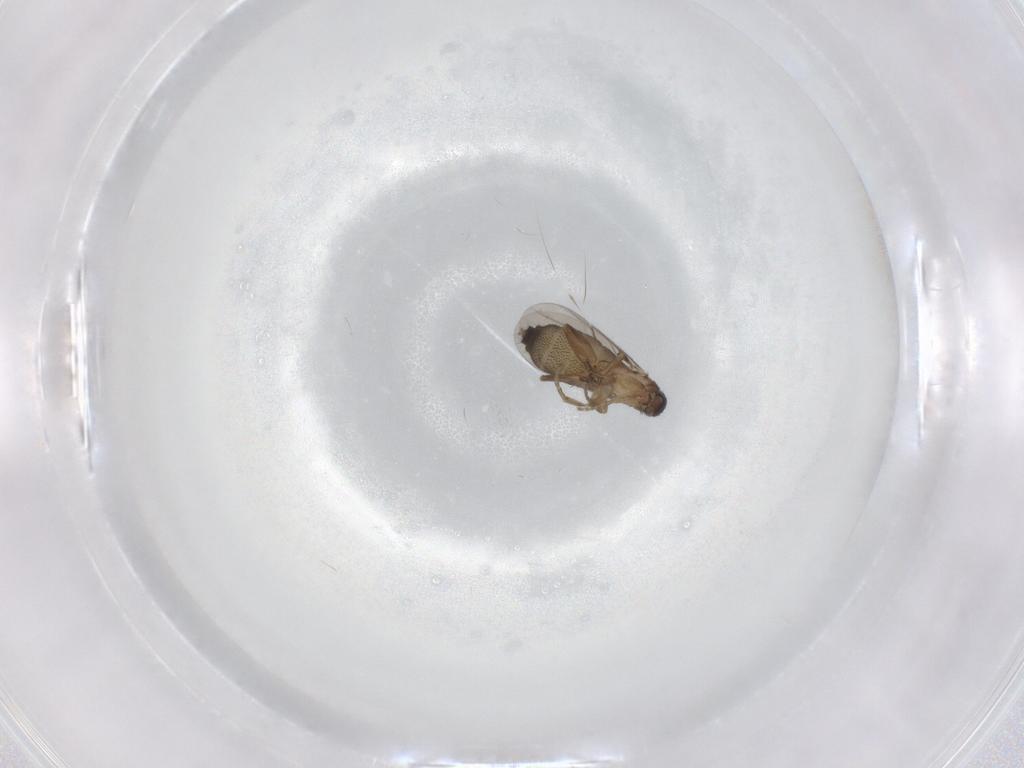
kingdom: Animalia
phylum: Arthropoda
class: Insecta
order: Diptera
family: Phoridae
